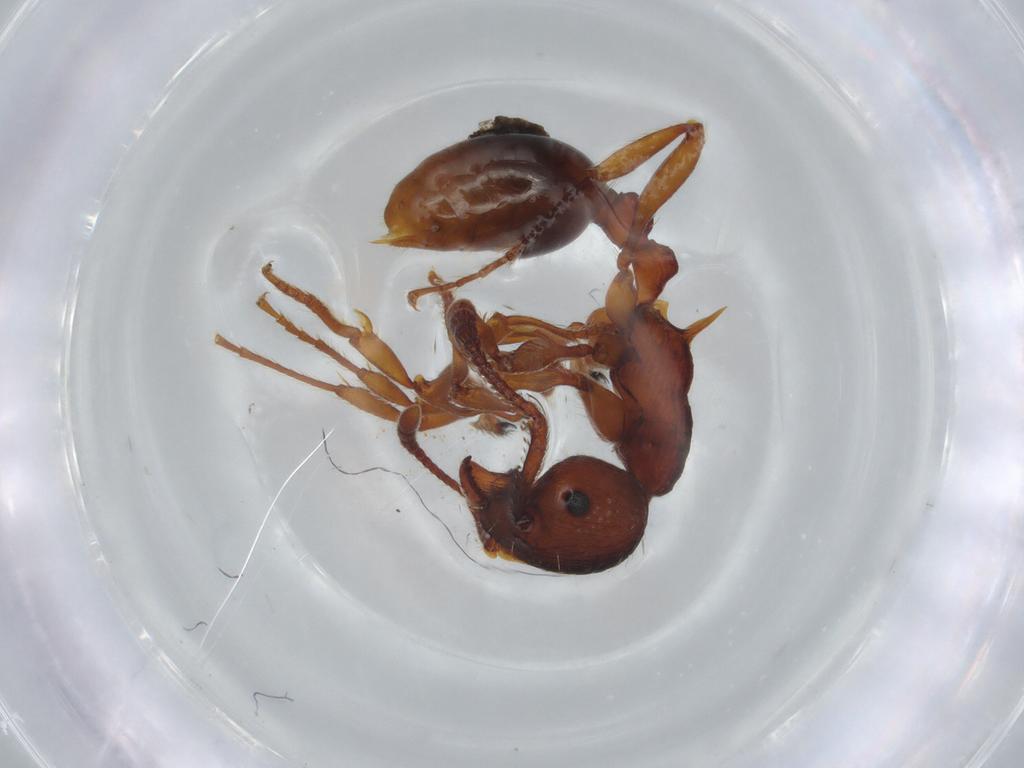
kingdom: Animalia
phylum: Arthropoda
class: Insecta
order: Hymenoptera
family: Formicidae
